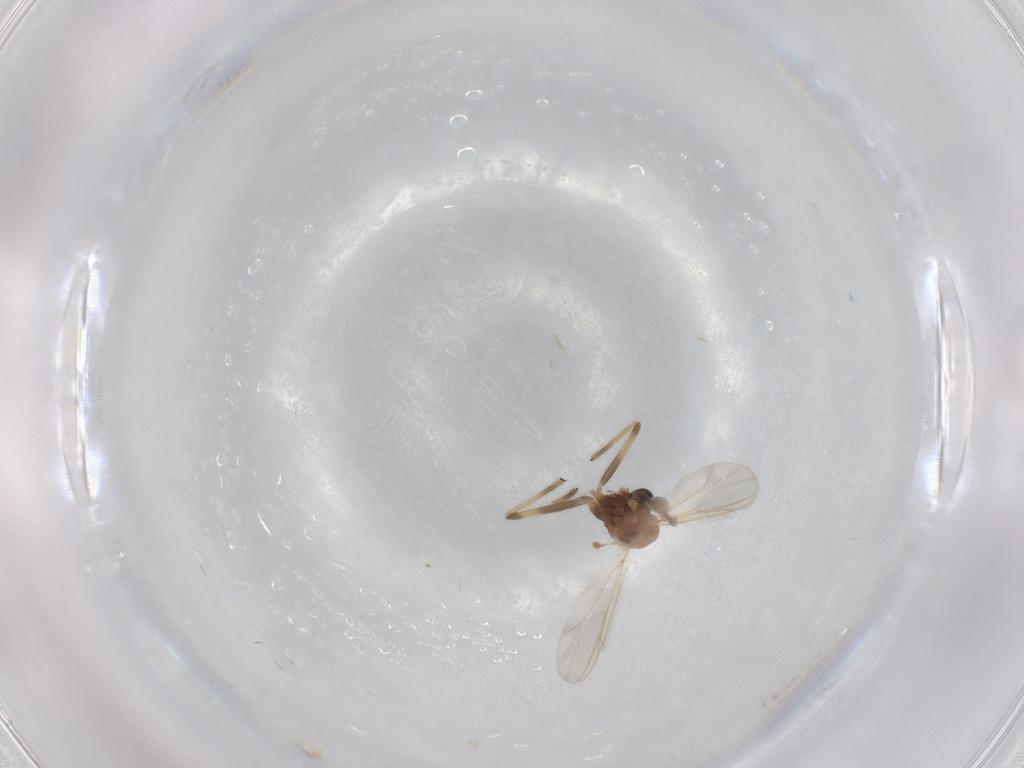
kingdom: Animalia
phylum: Arthropoda
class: Insecta
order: Diptera
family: Chironomidae
